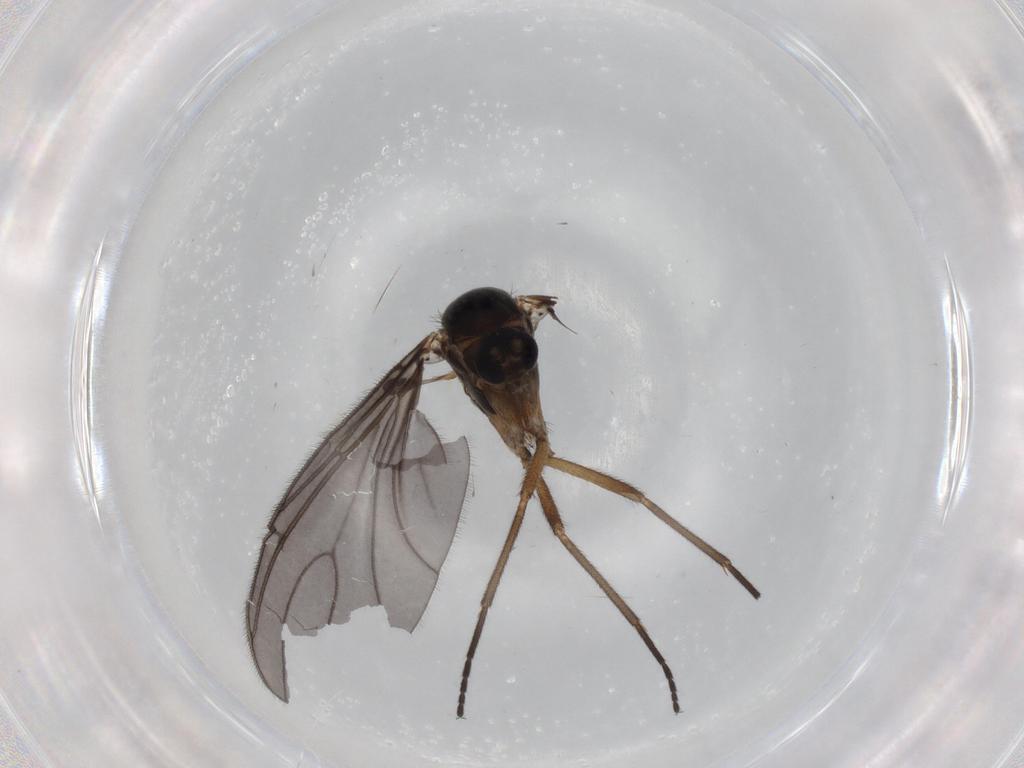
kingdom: Animalia
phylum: Arthropoda
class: Insecta
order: Diptera
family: Sciaridae
